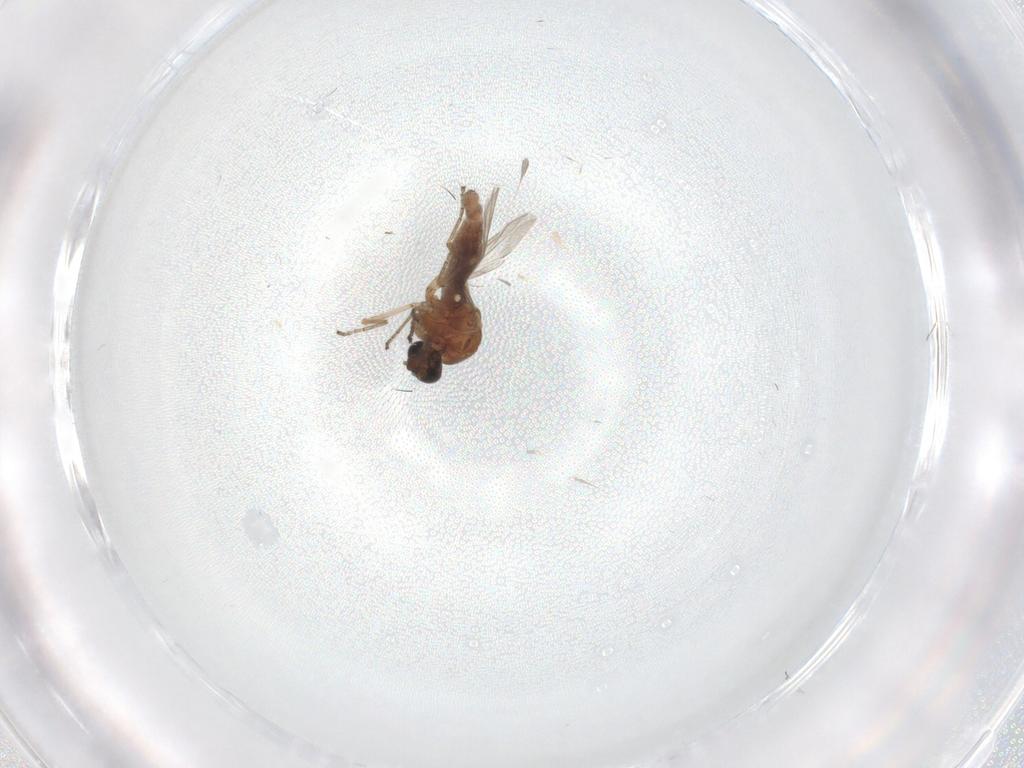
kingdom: Animalia
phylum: Arthropoda
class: Insecta
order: Diptera
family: Ceratopogonidae
